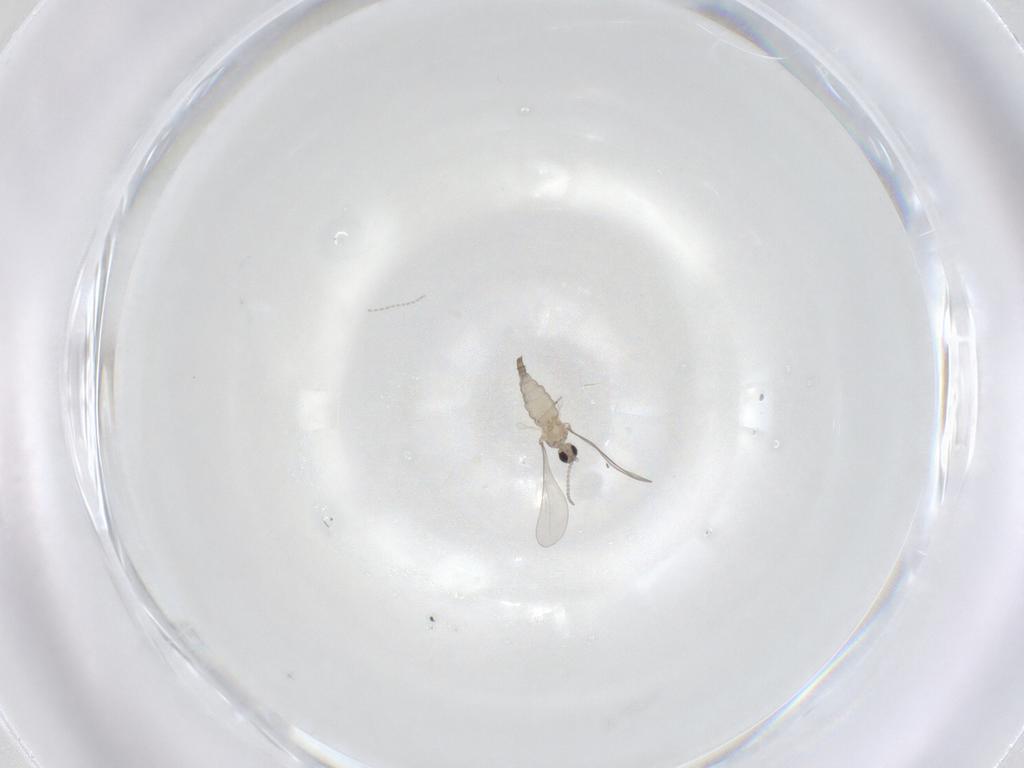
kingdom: Animalia
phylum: Arthropoda
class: Insecta
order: Diptera
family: Cecidomyiidae
